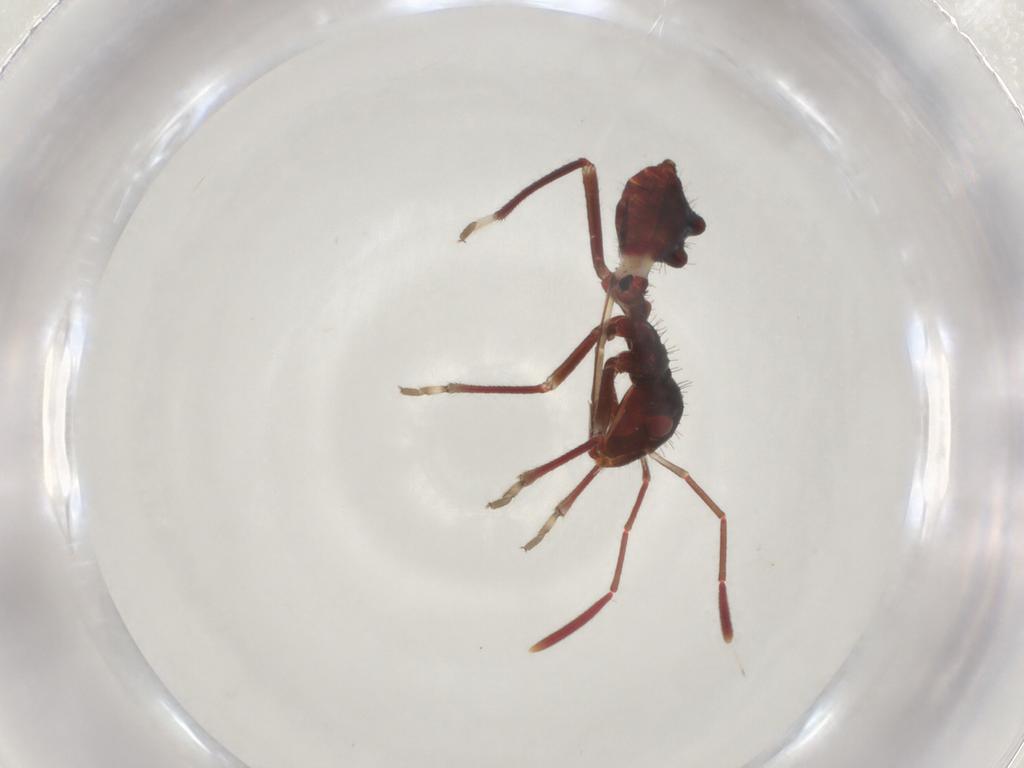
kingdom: Animalia
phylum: Arthropoda
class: Insecta
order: Hemiptera
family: Alydidae
